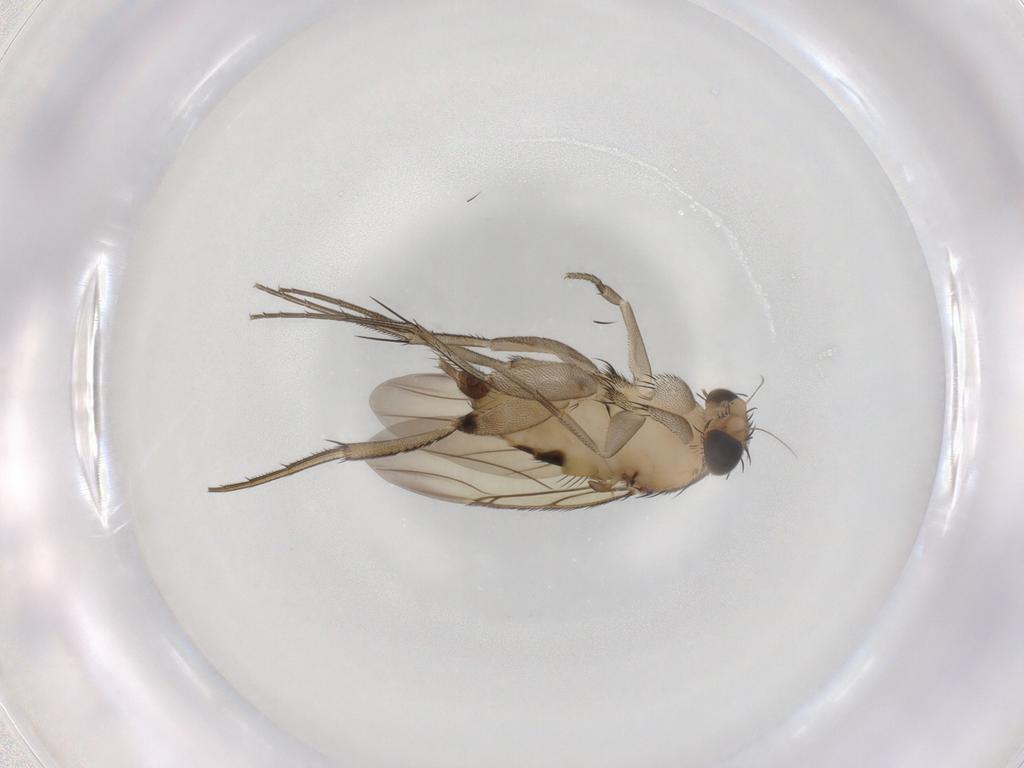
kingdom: Animalia
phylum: Arthropoda
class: Insecta
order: Diptera
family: Phoridae
